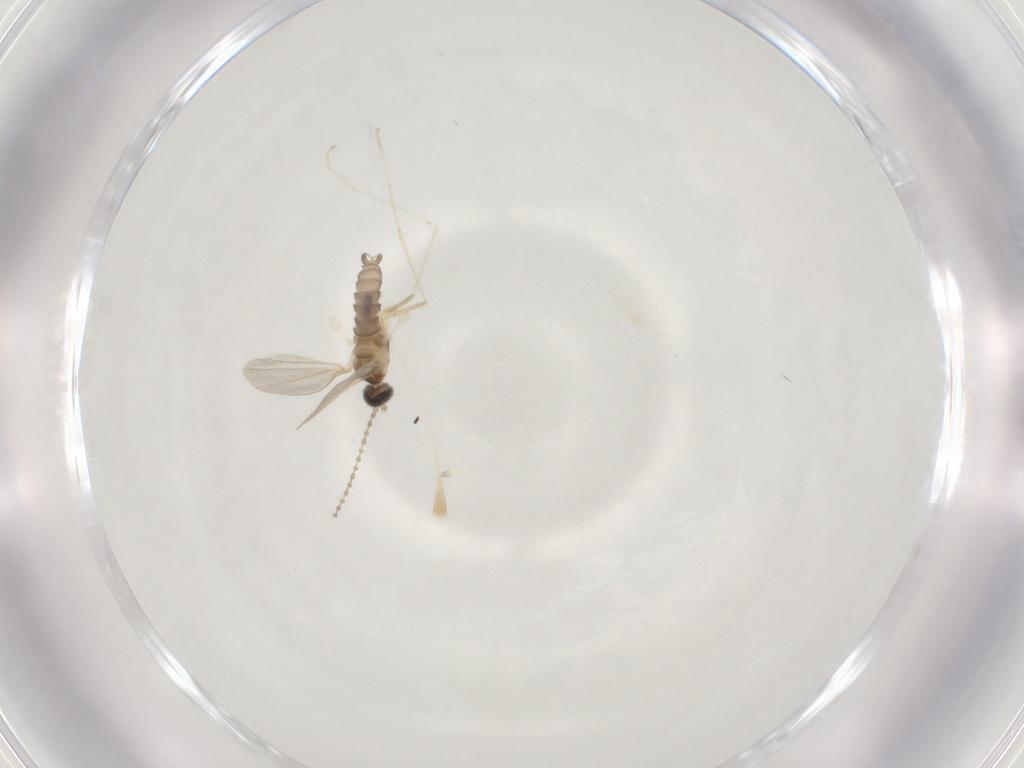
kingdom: Animalia
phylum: Arthropoda
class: Insecta
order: Diptera
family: Cecidomyiidae
